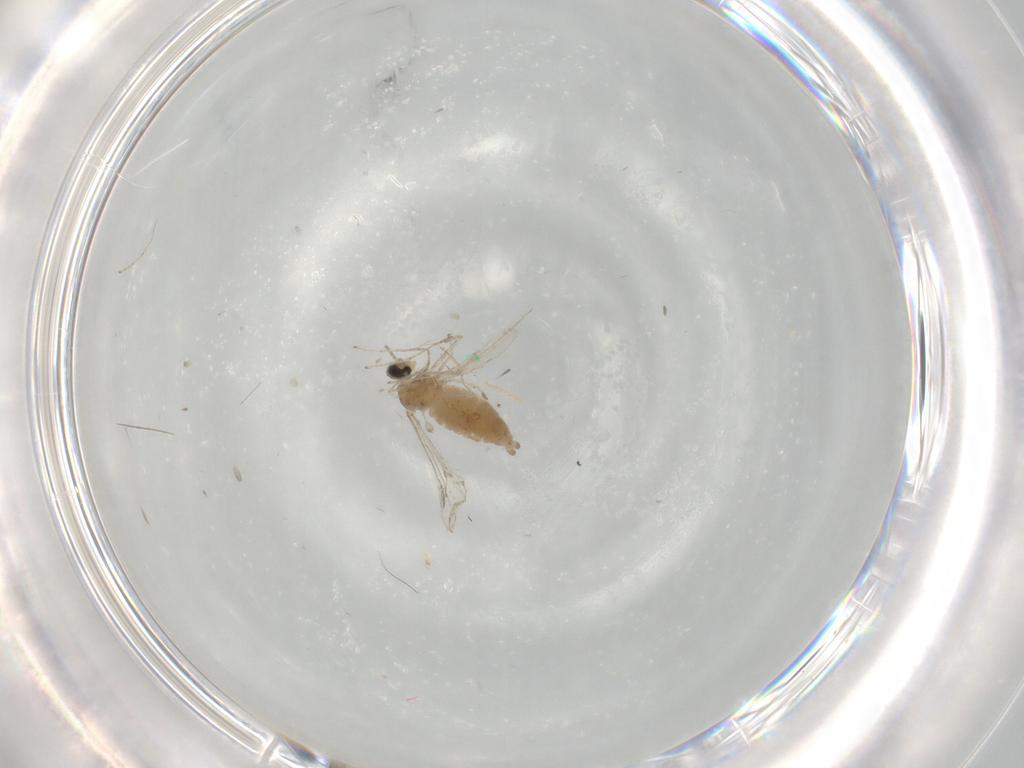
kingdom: Animalia
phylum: Arthropoda
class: Insecta
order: Diptera
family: Cecidomyiidae
